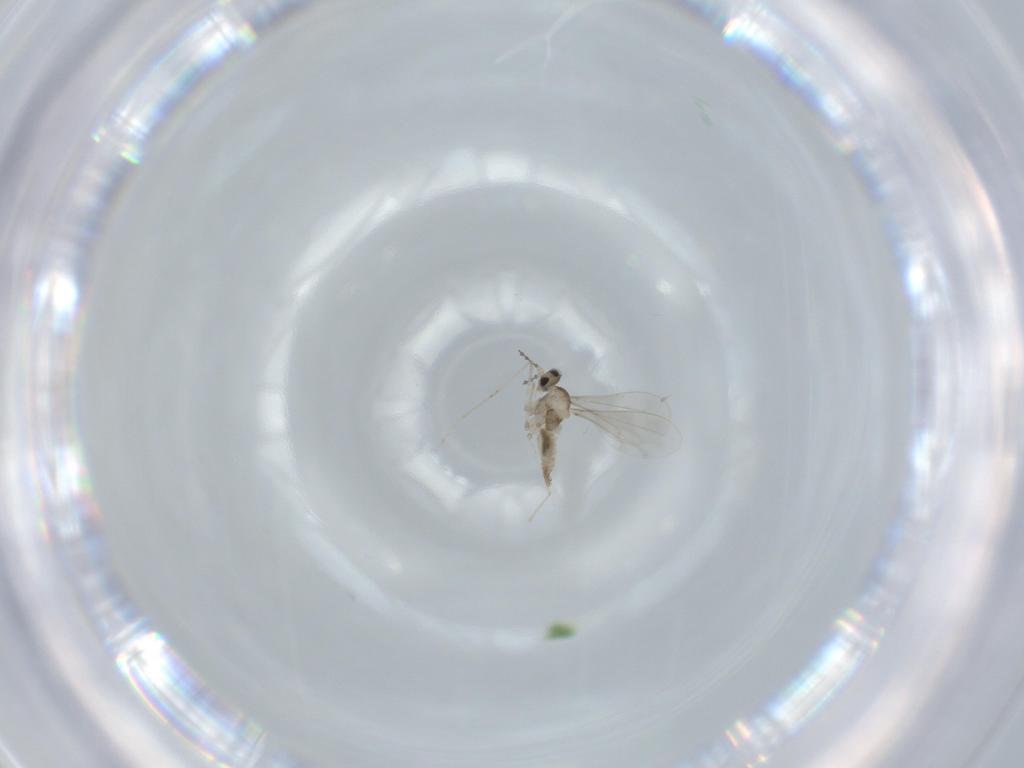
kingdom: Animalia
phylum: Arthropoda
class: Insecta
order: Diptera
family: Cecidomyiidae
